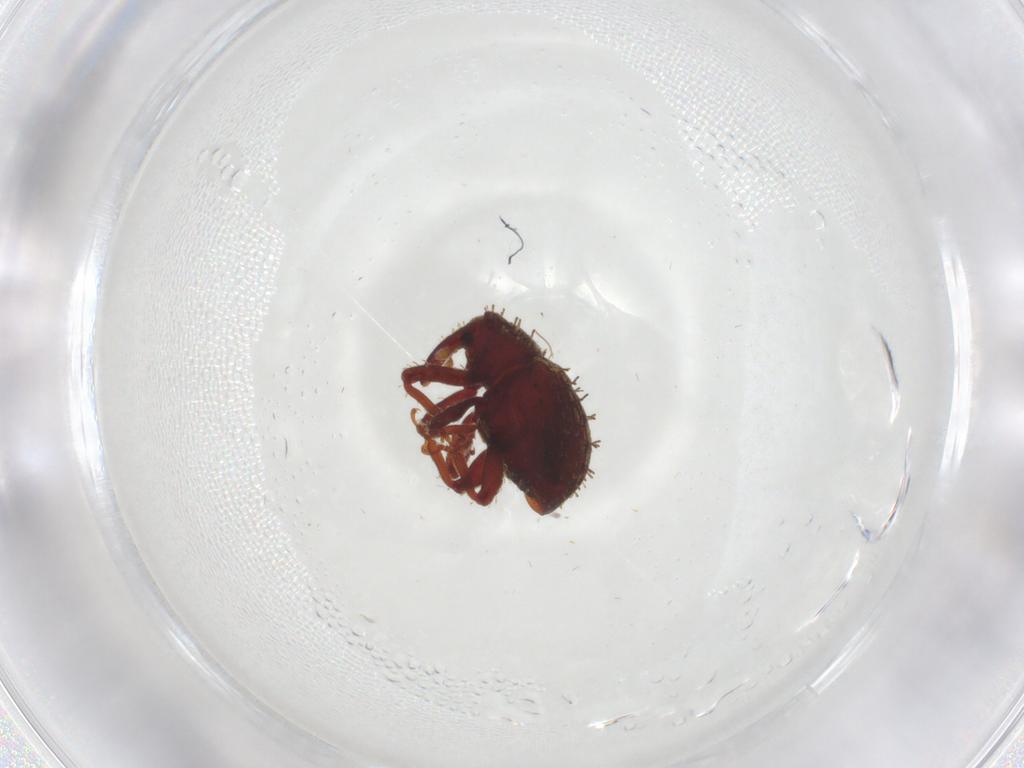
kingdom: Animalia
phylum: Arthropoda
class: Insecta
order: Coleoptera
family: Curculionidae
